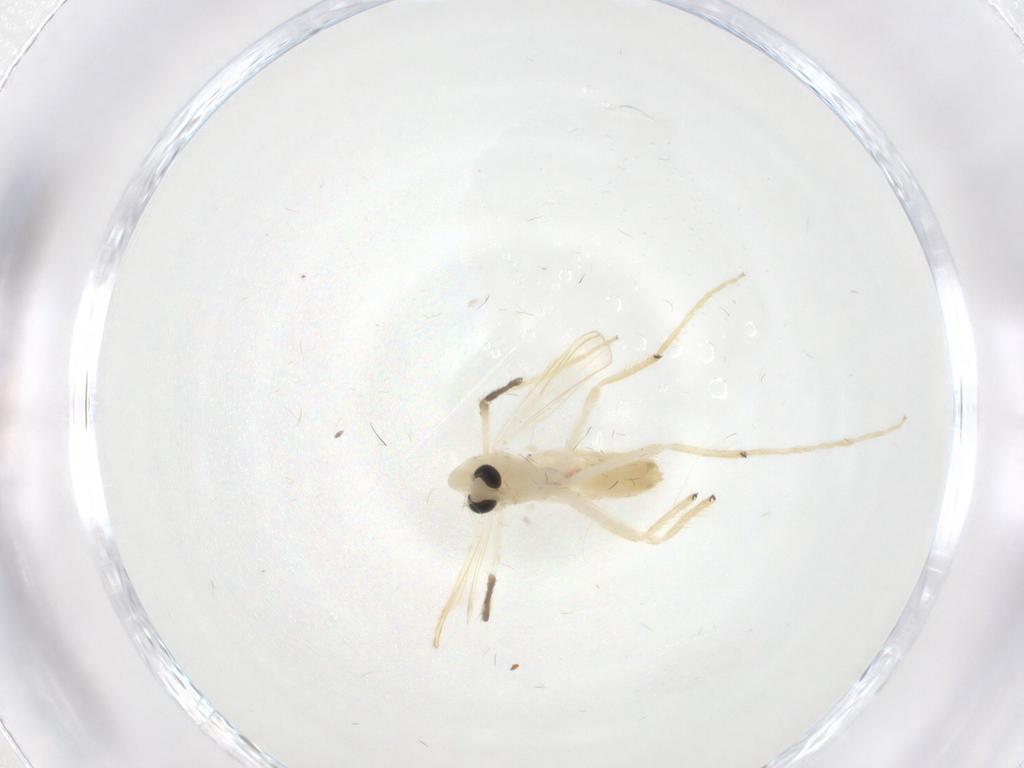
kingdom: Animalia
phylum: Arthropoda
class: Insecta
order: Diptera
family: Chironomidae
